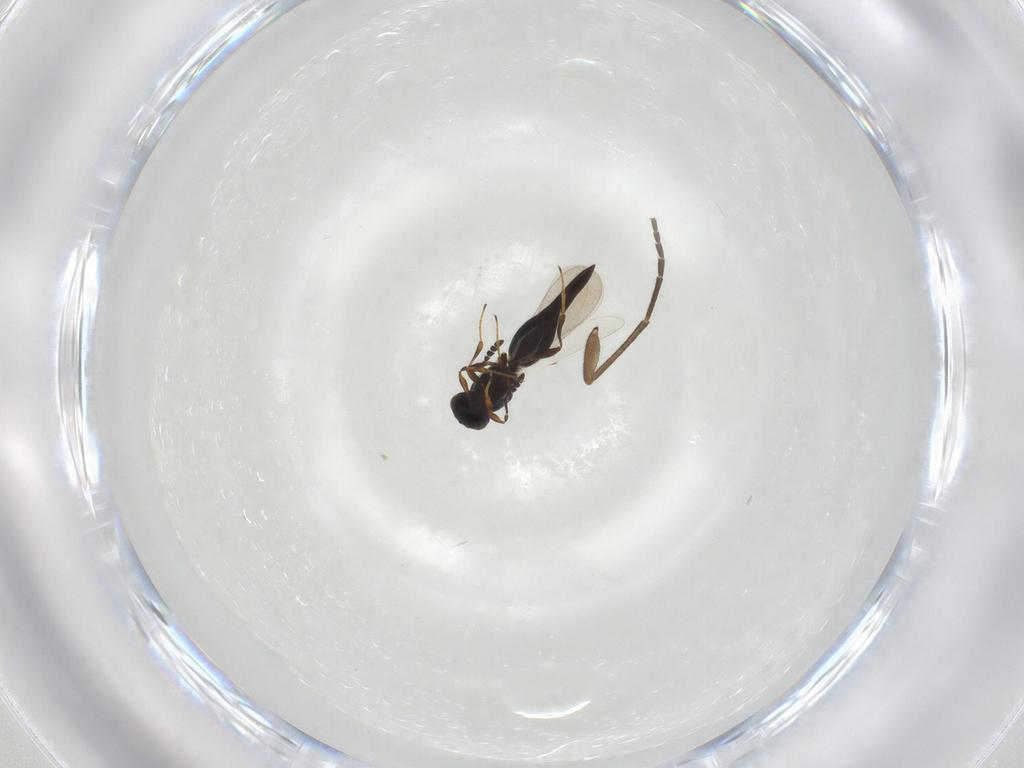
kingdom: Animalia
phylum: Arthropoda
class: Insecta
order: Hymenoptera
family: Platygastridae
